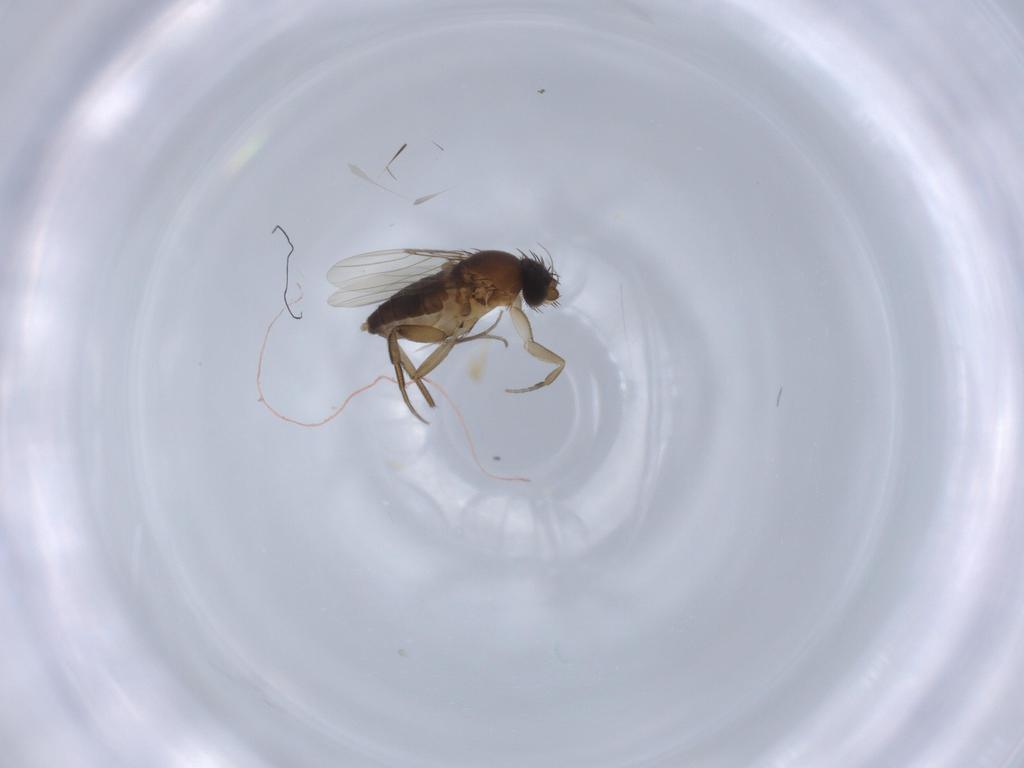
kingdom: Animalia
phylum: Arthropoda
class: Insecta
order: Diptera
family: Phoridae
